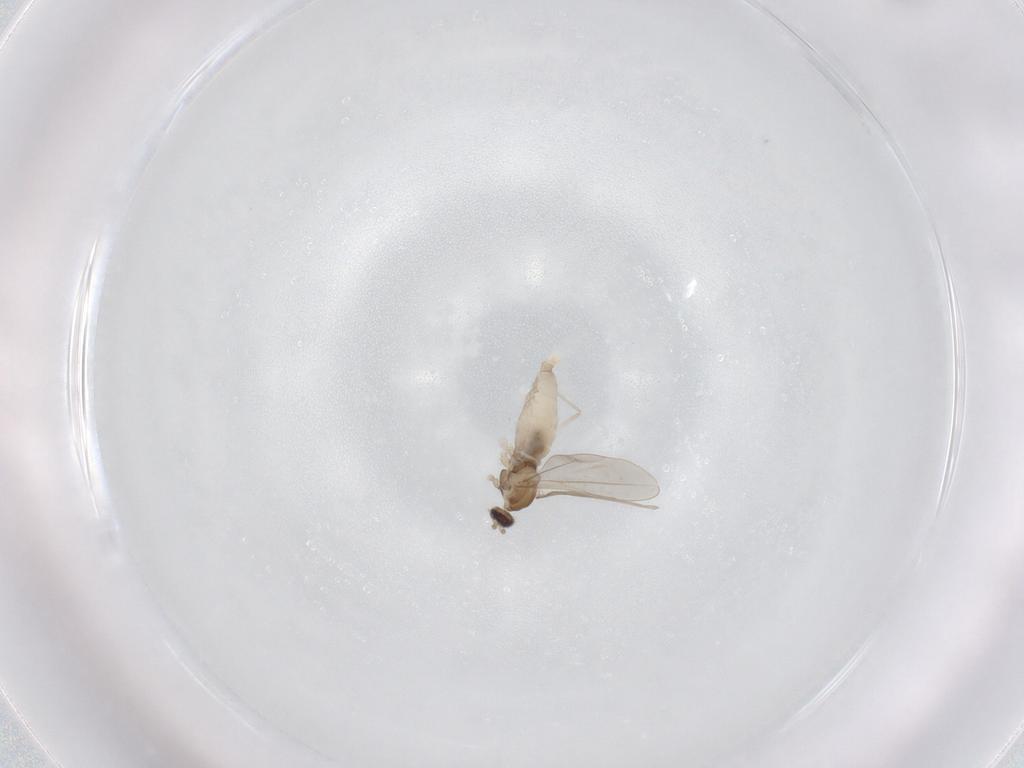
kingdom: Animalia
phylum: Arthropoda
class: Insecta
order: Diptera
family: Cecidomyiidae
